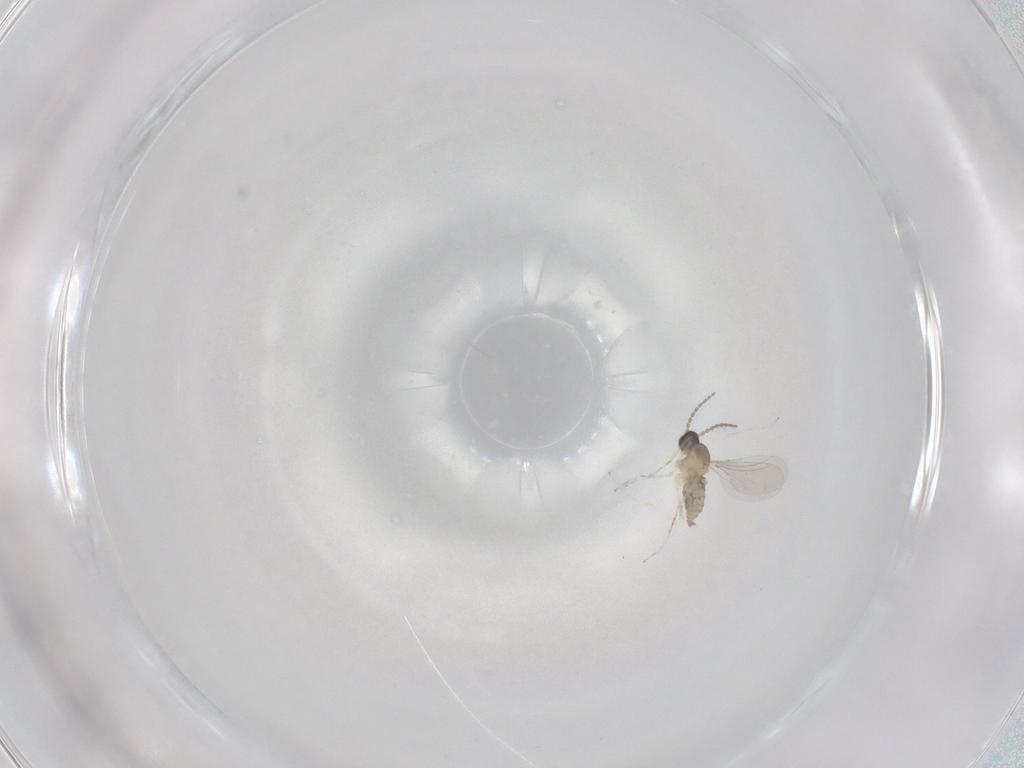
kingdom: Animalia
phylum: Arthropoda
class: Insecta
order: Diptera
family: Cecidomyiidae
